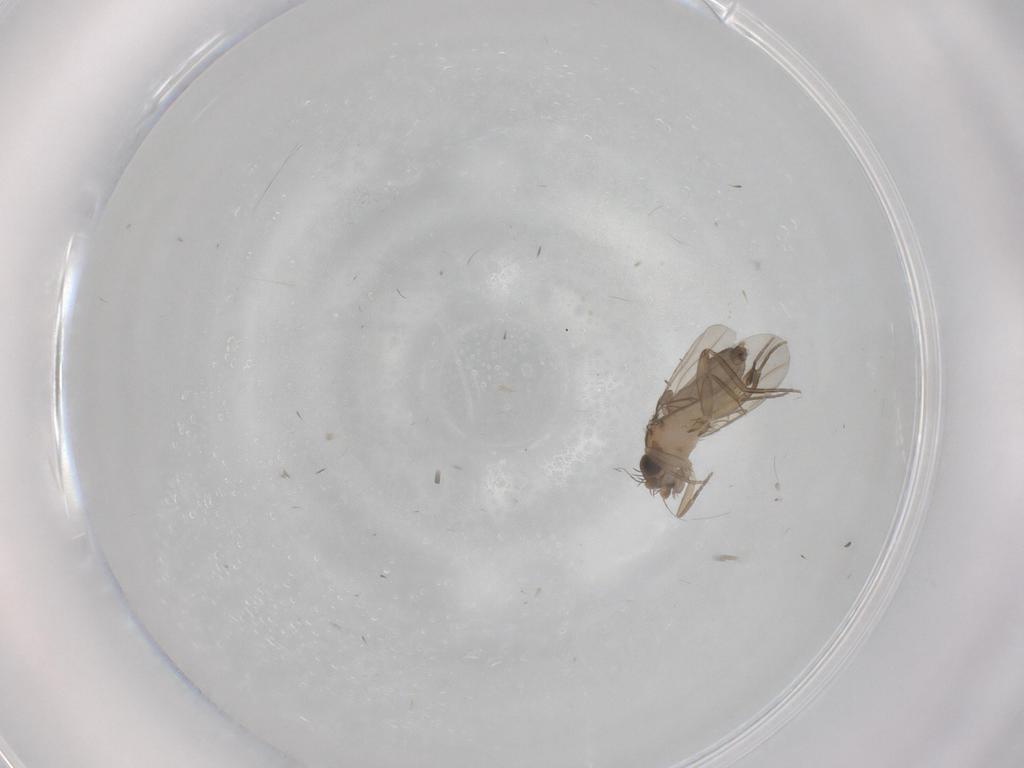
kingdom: Animalia
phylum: Arthropoda
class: Insecta
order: Diptera
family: Phoridae
